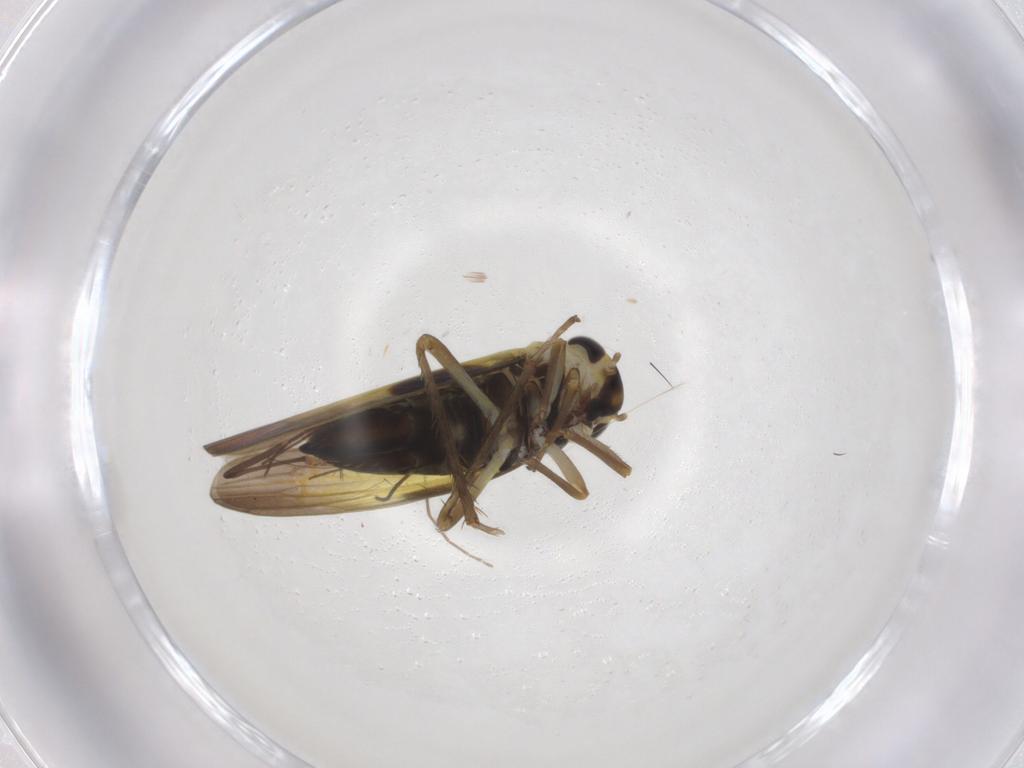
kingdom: Animalia
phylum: Arthropoda
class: Insecta
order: Hemiptera
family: Cicadellidae
